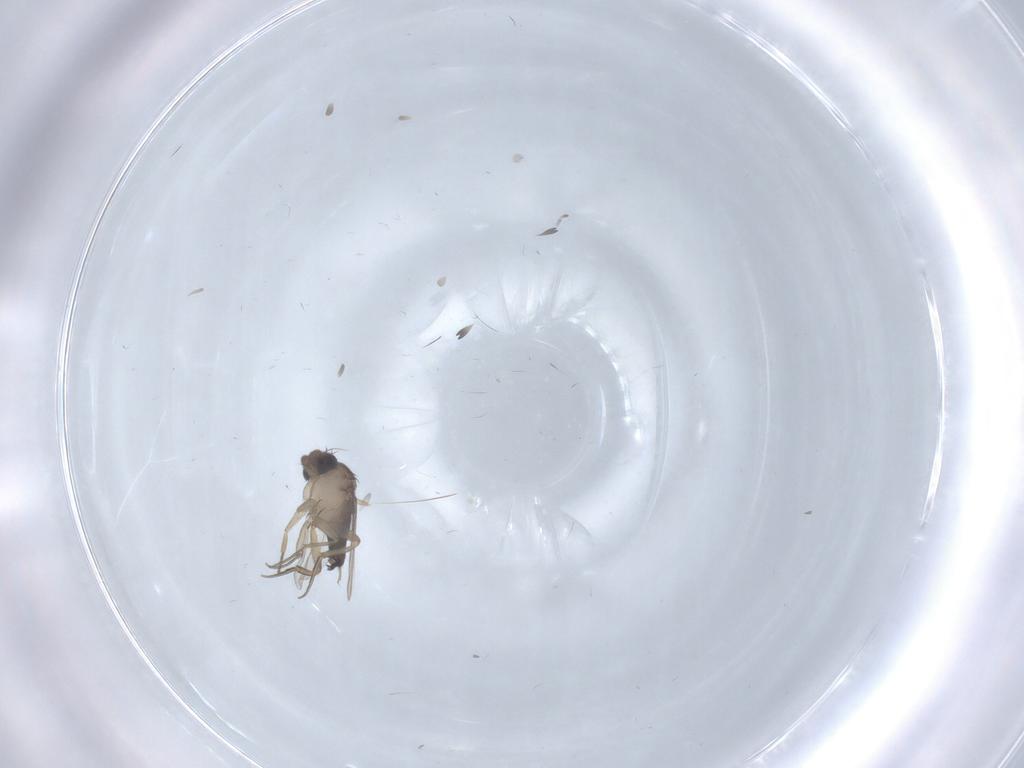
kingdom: Animalia
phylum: Arthropoda
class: Insecta
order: Diptera
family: Phoridae
